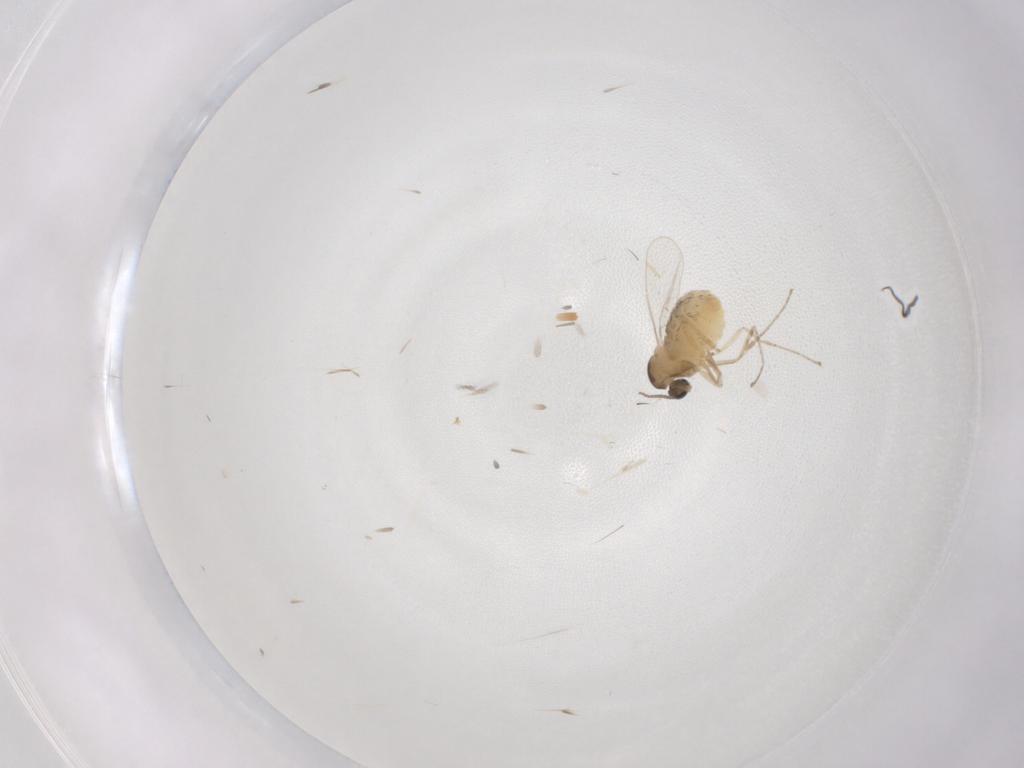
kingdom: Animalia
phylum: Arthropoda
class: Insecta
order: Diptera
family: Cecidomyiidae
